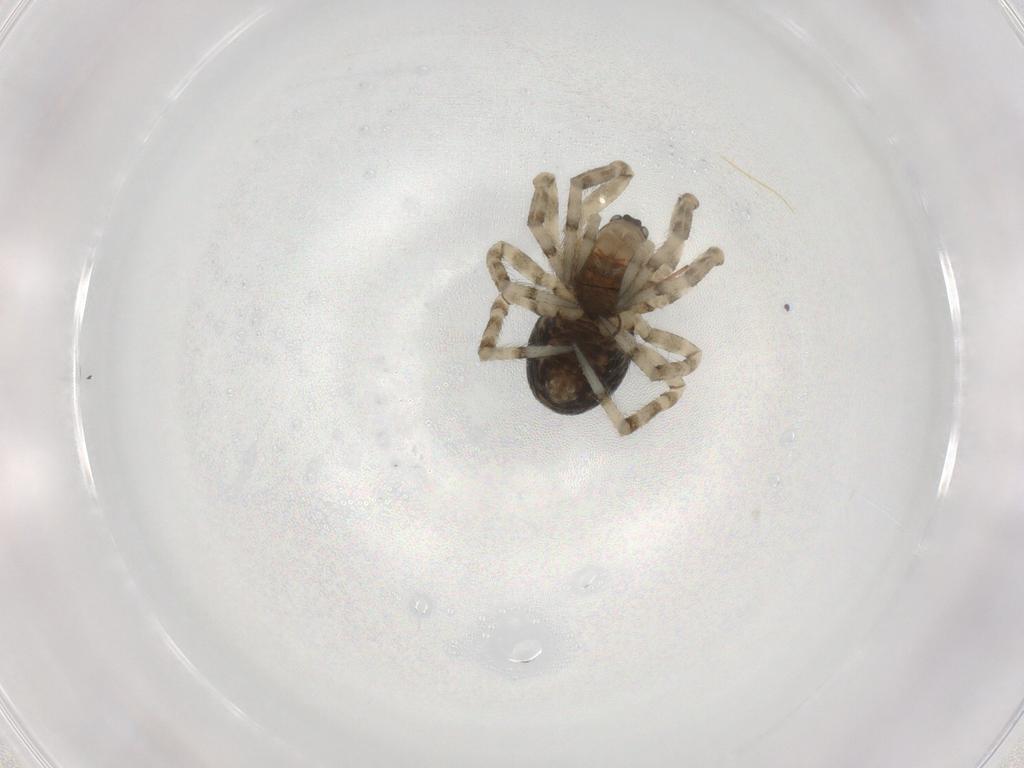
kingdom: Animalia
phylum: Arthropoda
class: Arachnida
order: Araneae
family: Theridiidae
